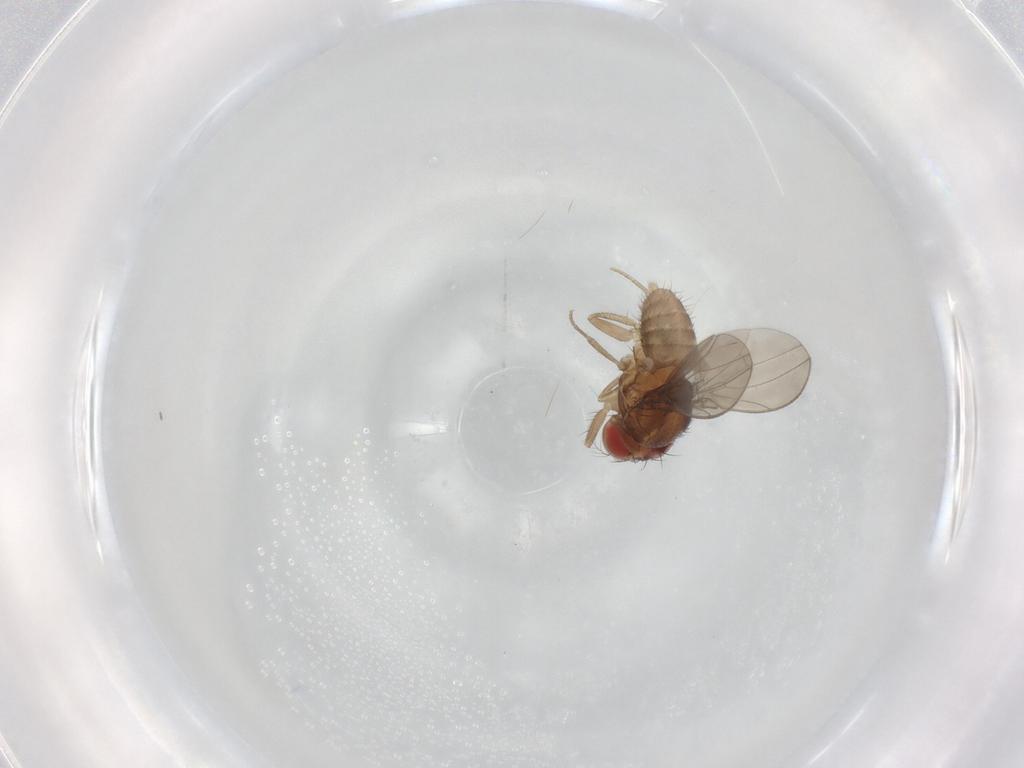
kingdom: Animalia
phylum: Arthropoda
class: Insecta
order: Diptera
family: Drosophilidae
